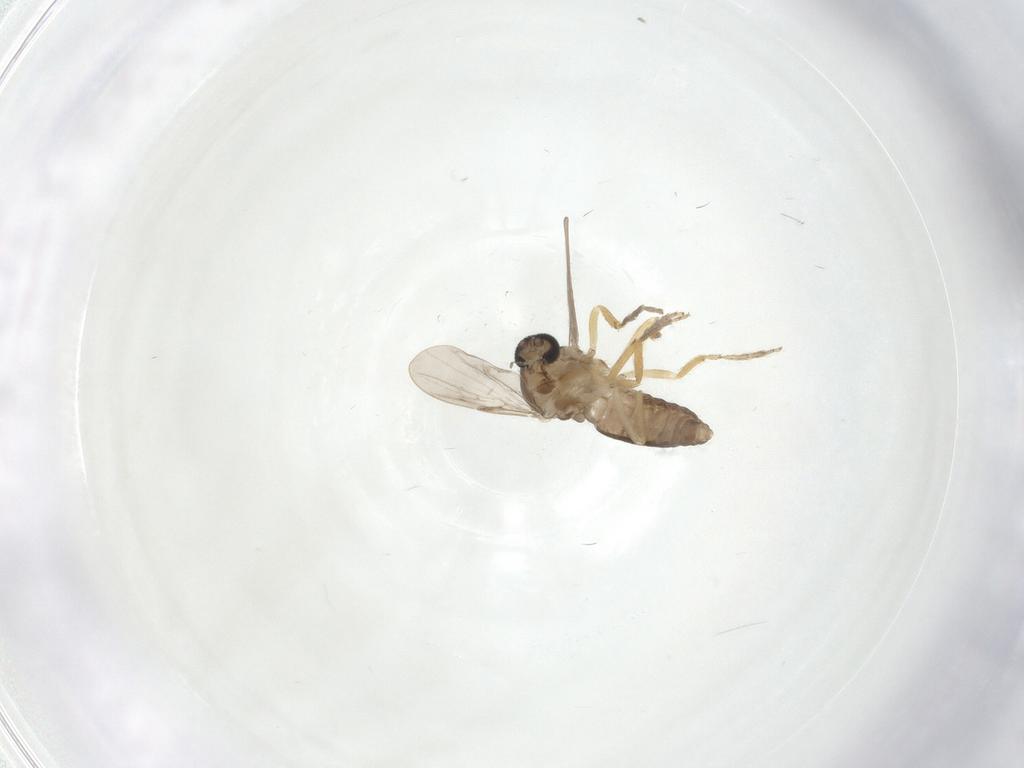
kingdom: Animalia
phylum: Arthropoda
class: Insecta
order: Diptera
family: Ceratopogonidae
